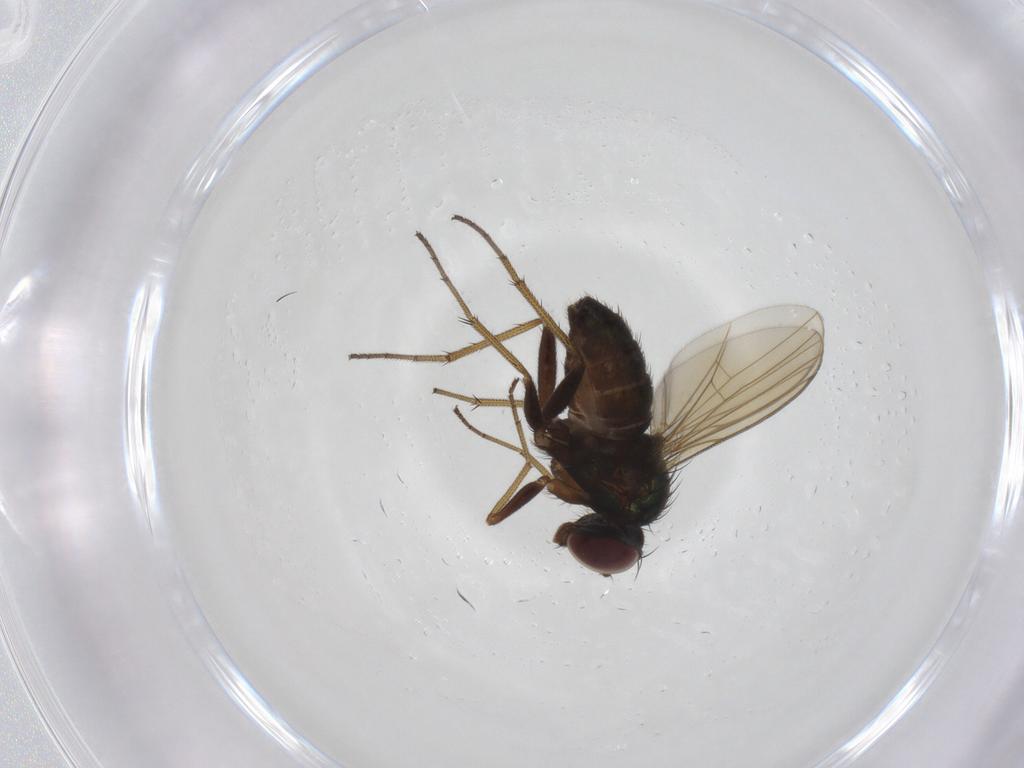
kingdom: Animalia
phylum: Arthropoda
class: Insecta
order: Diptera
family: Dolichopodidae
